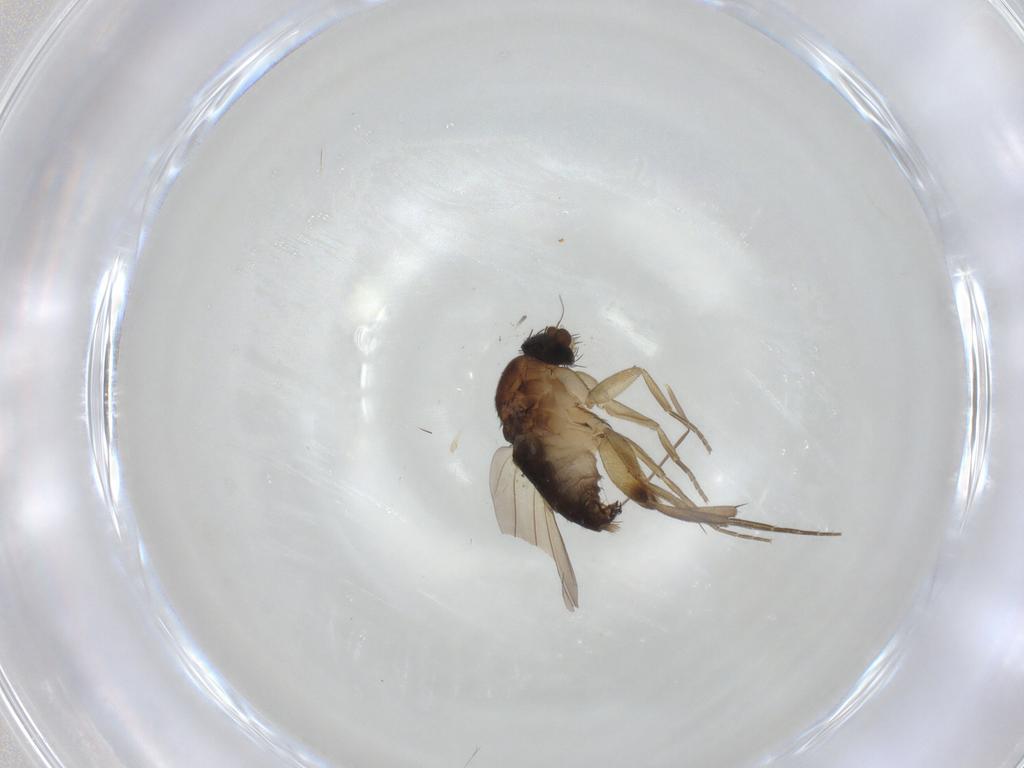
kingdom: Animalia
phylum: Arthropoda
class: Insecta
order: Diptera
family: Phoridae
